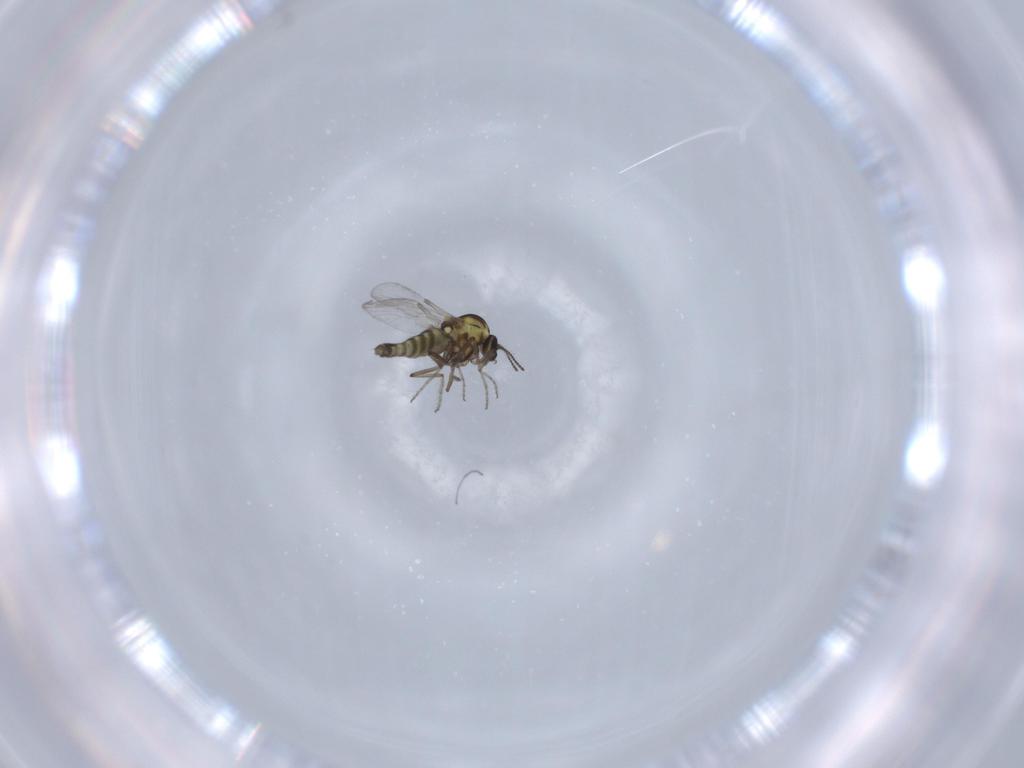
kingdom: Animalia
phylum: Arthropoda
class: Insecta
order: Diptera
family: Ceratopogonidae
